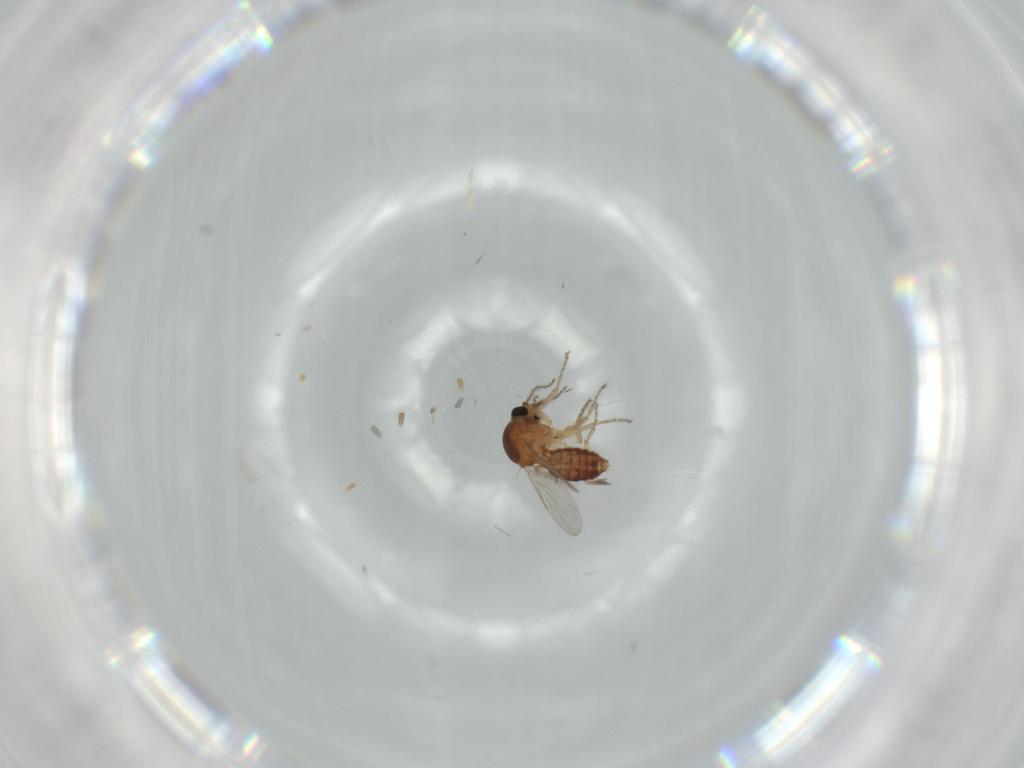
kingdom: Animalia
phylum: Arthropoda
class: Insecta
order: Diptera
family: Ceratopogonidae
